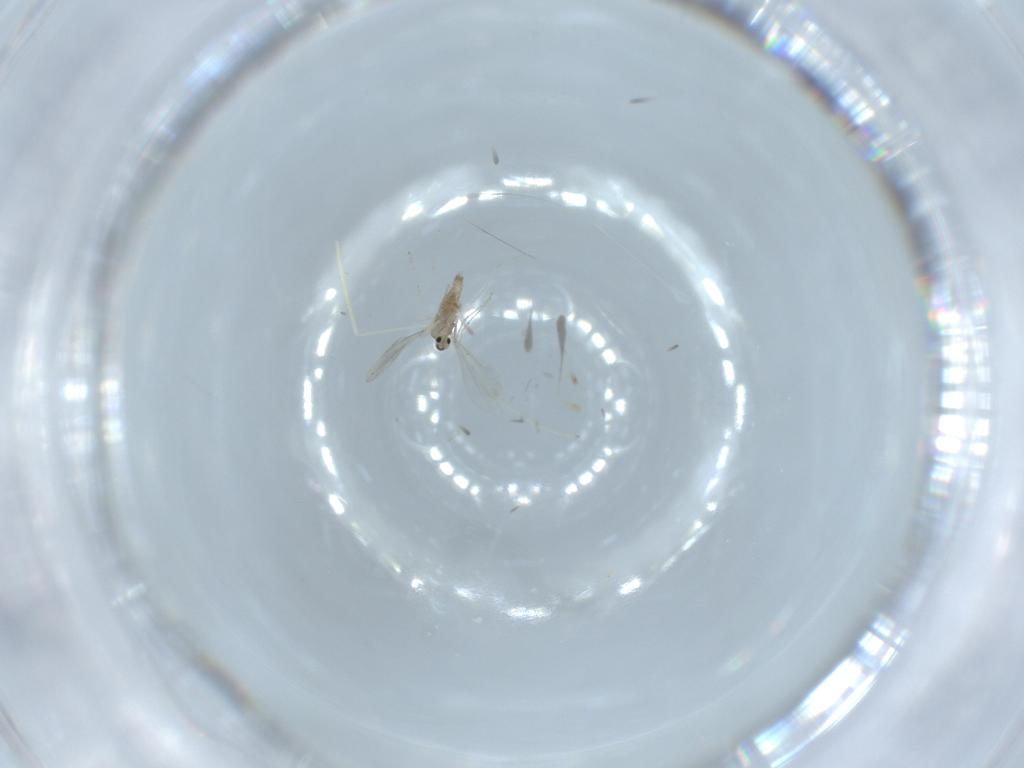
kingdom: Animalia
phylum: Arthropoda
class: Insecta
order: Diptera
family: Cecidomyiidae
